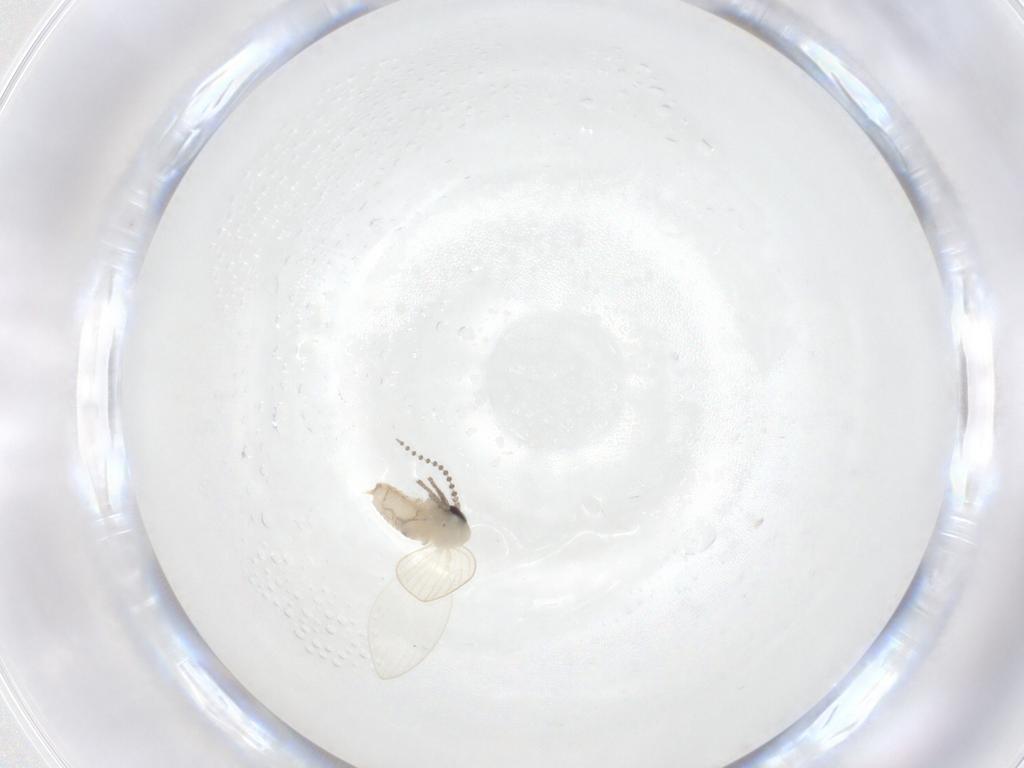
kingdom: Animalia
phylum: Arthropoda
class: Insecta
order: Diptera
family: Psychodidae
